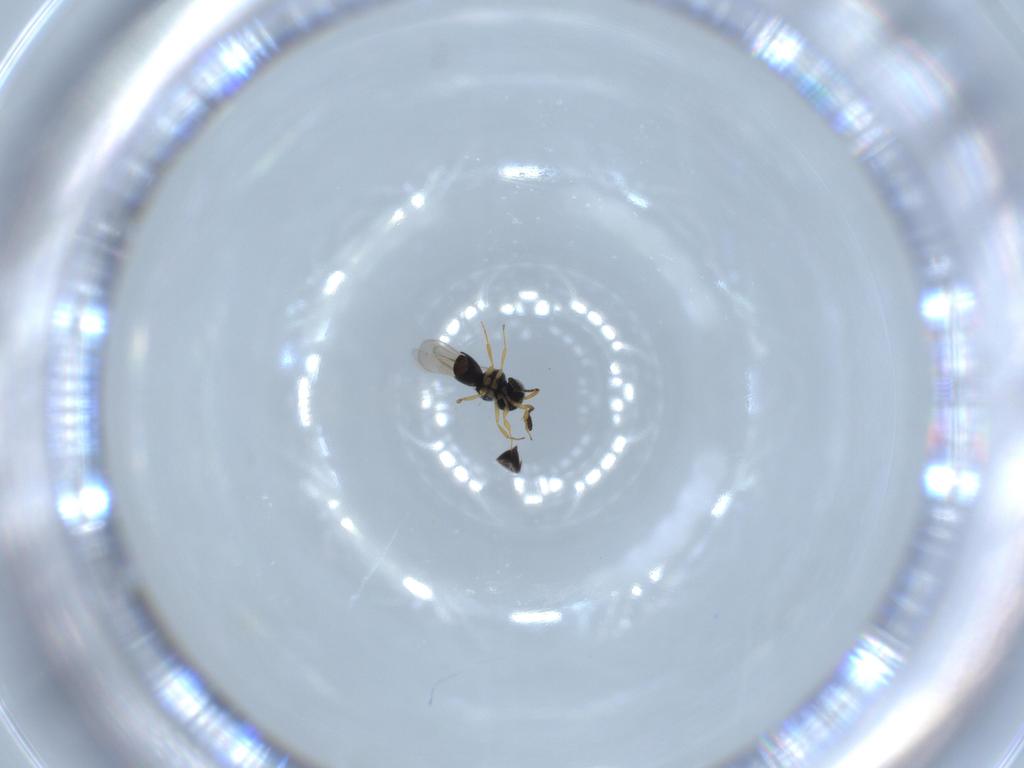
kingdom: Animalia
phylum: Arthropoda
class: Insecta
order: Hymenoptera
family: Scelionidae
